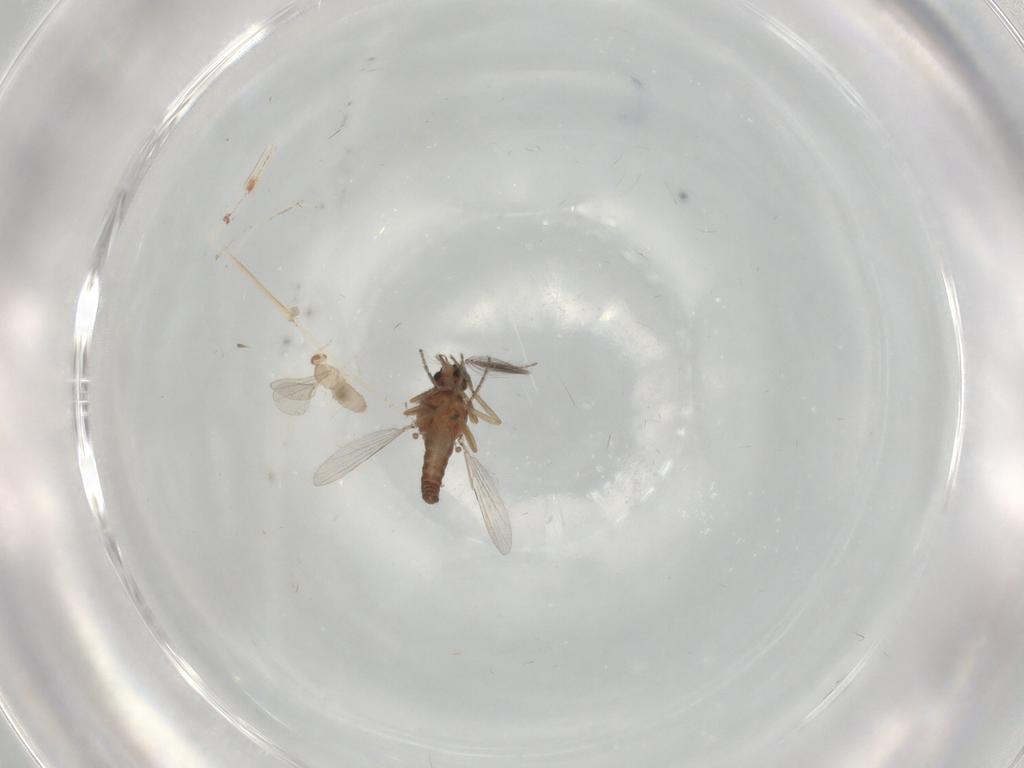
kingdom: Animalia
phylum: Arthropoda
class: Insecta
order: Diptera
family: Ceratopogonidae
